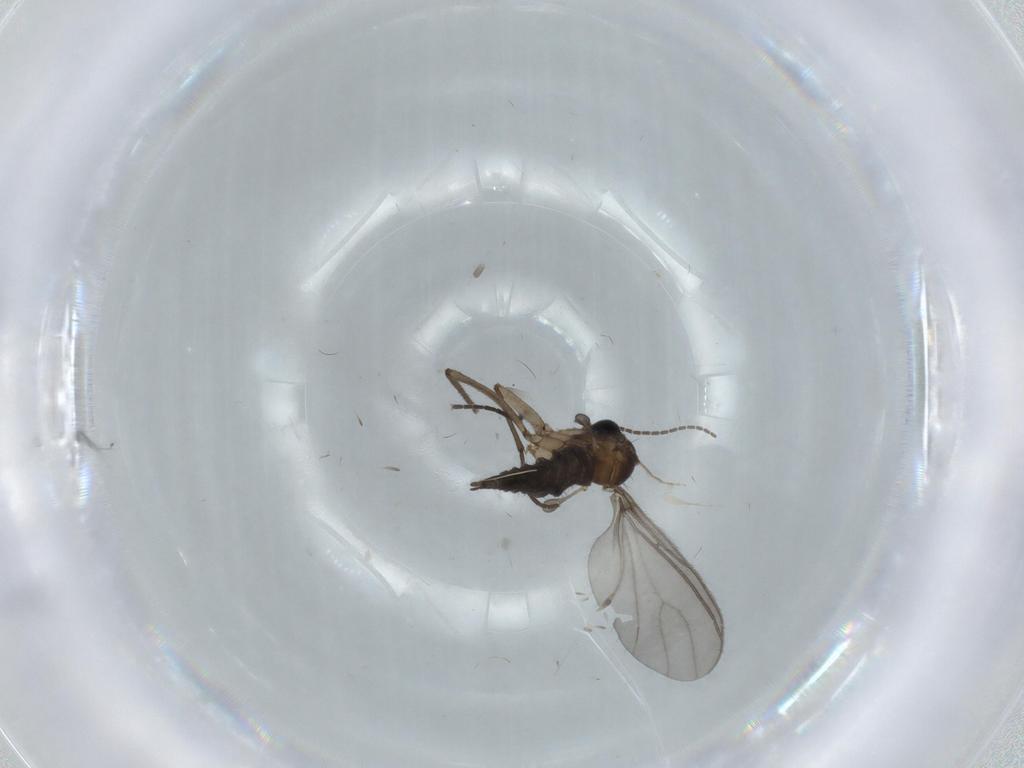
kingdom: Animalia
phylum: Arthropoda
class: Insecta
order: Diptera
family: Sciaridae
